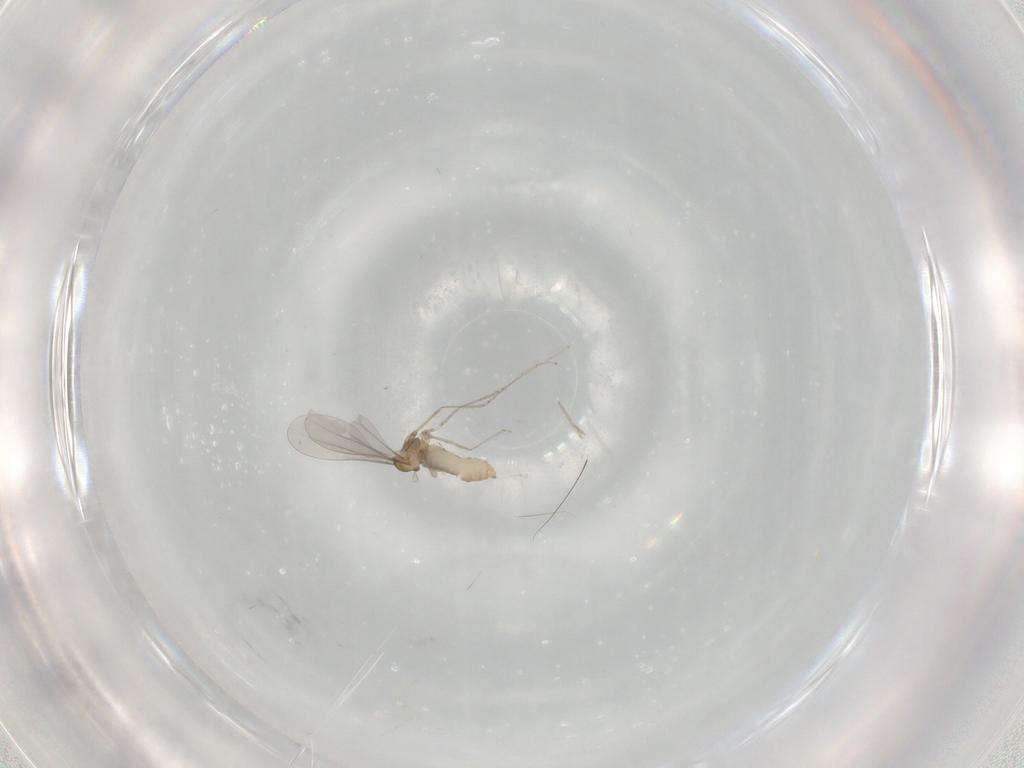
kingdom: Animalia
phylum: Arthropoda
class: Insecta
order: Diptera
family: Cecidomyiidae
